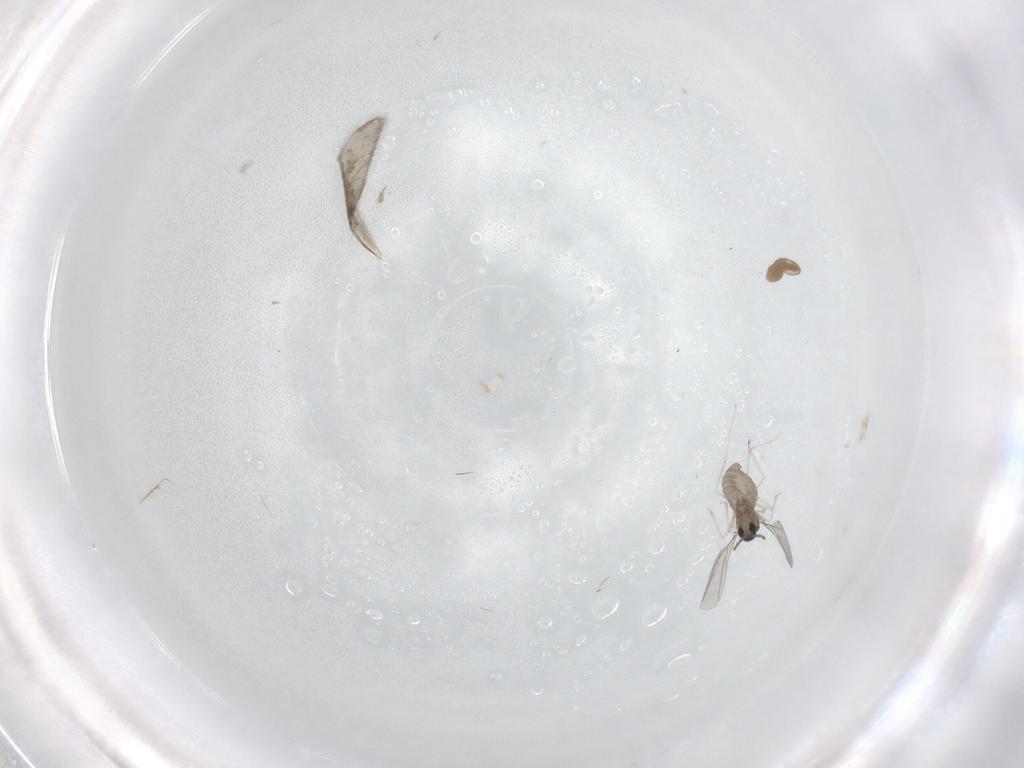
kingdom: Animalia
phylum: Arthropoda
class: Insecta
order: Diptera
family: Cecidomyiidae
